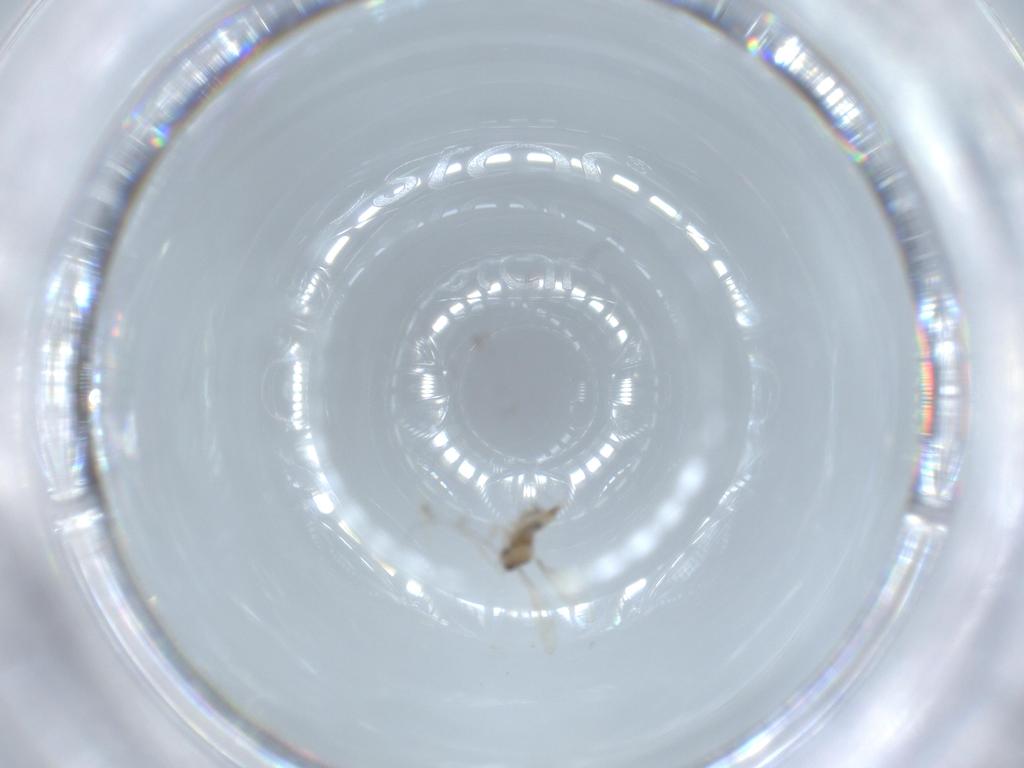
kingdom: Animalia
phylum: Arthropoda
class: Insecta
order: Diptera
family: Cecidomyiidae
